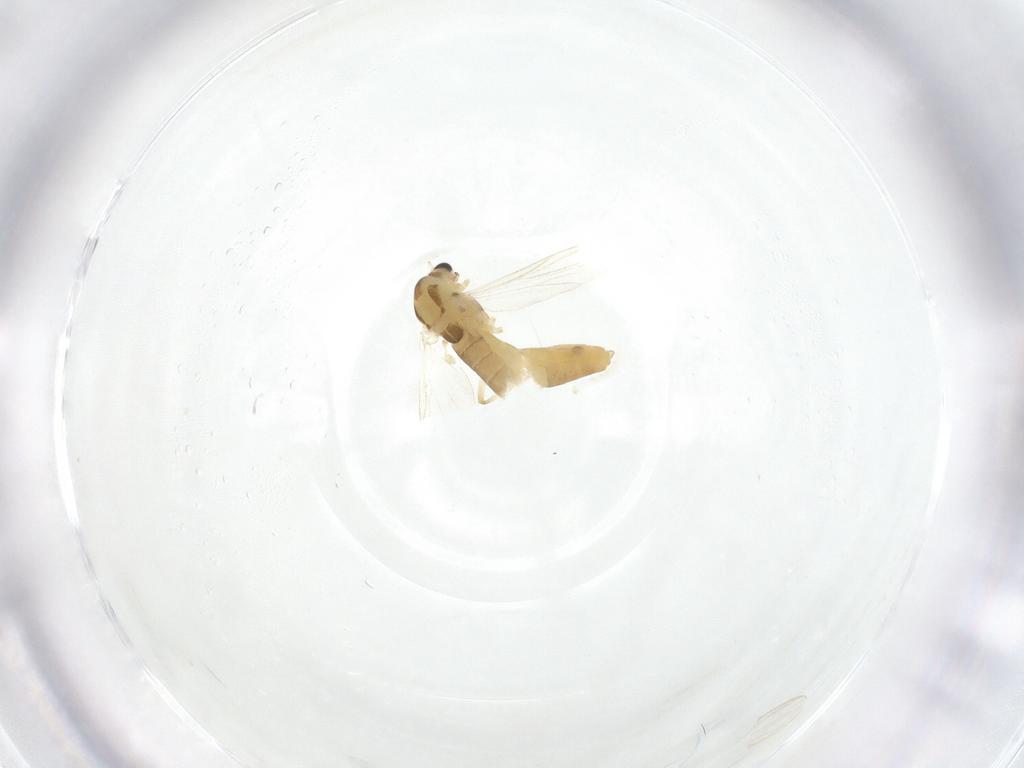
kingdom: Animalia
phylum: Arthropoda
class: Insecta
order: Diptera
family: Chironomidae
